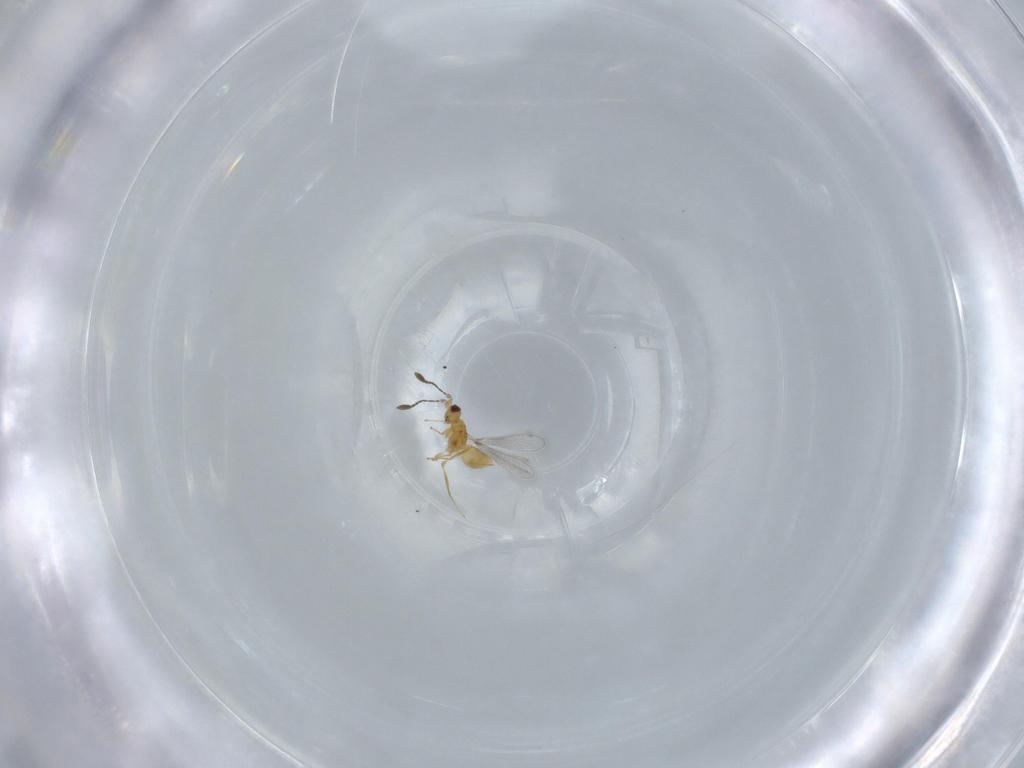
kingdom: Animalia
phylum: Arthropoda
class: Insecta
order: Hymenoptera
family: Mymaridae
